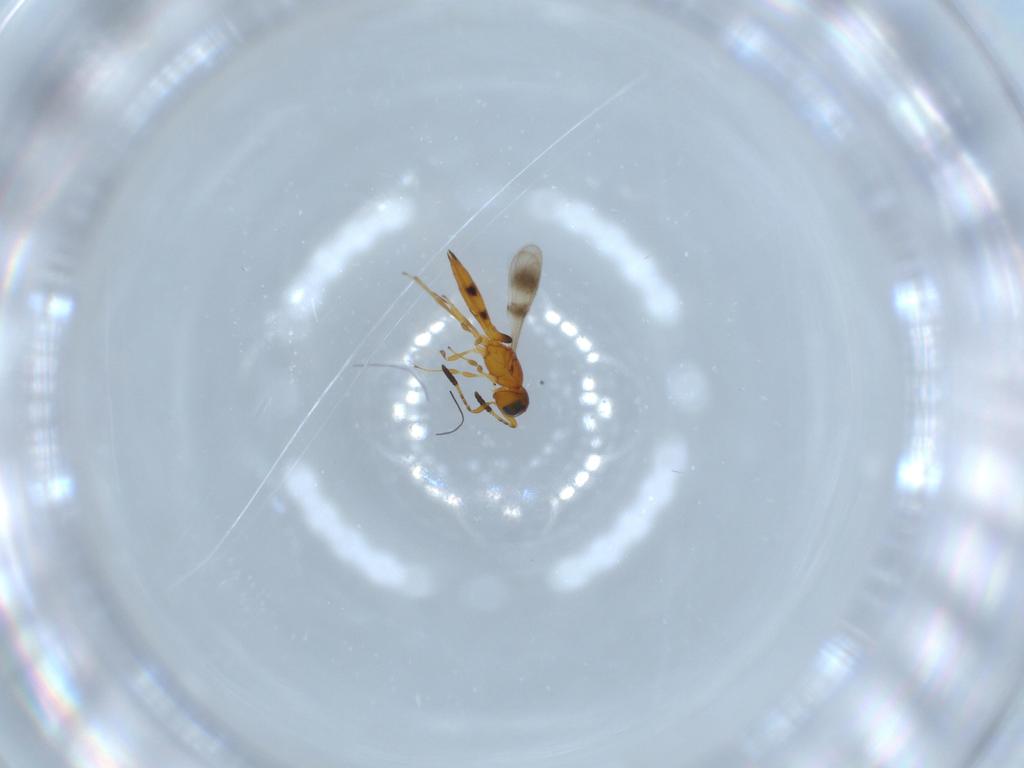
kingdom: Animalia
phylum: Arthropoda
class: Insecta
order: Hymenoptera
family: Scelionidae
